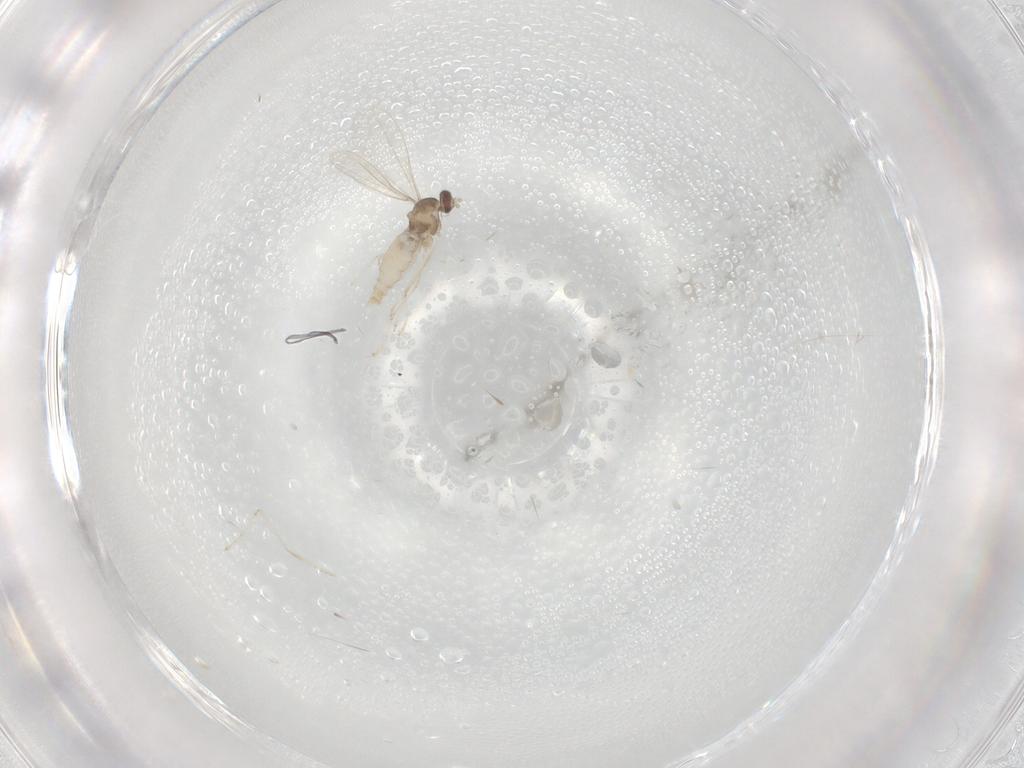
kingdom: Animalia
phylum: Arthropoda
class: Insecta
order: Diptera
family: Cecidomyiidae
